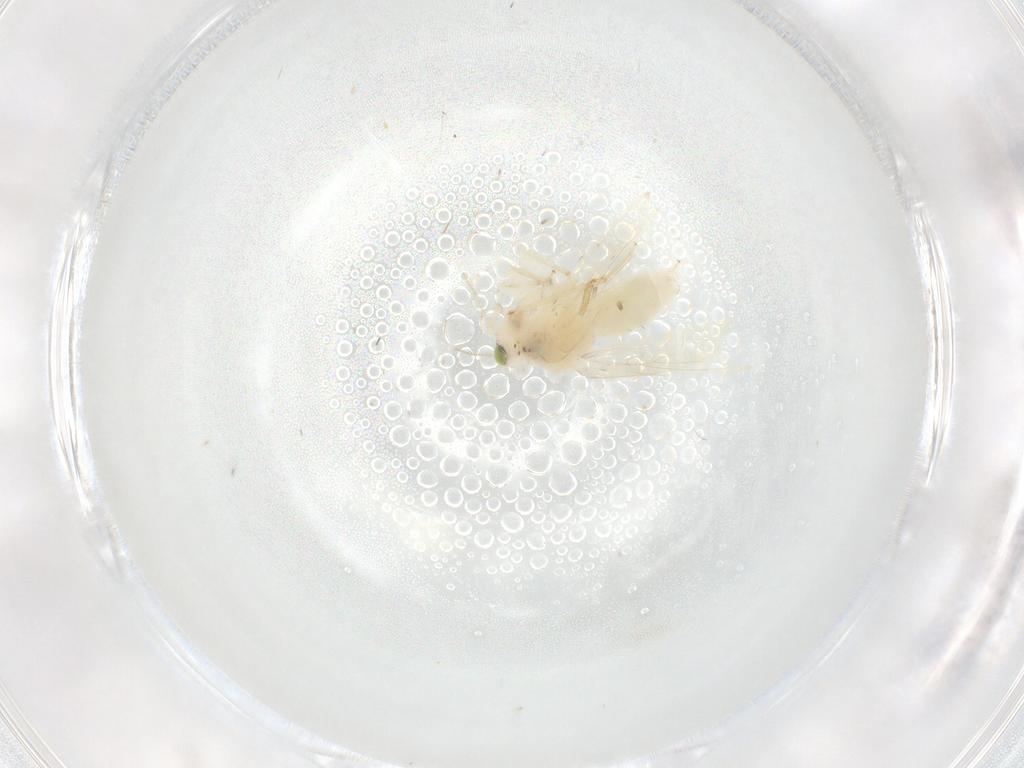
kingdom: Animalia
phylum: Arthropoda
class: Insecta
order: Psocodea
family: Lepidopsocidae
